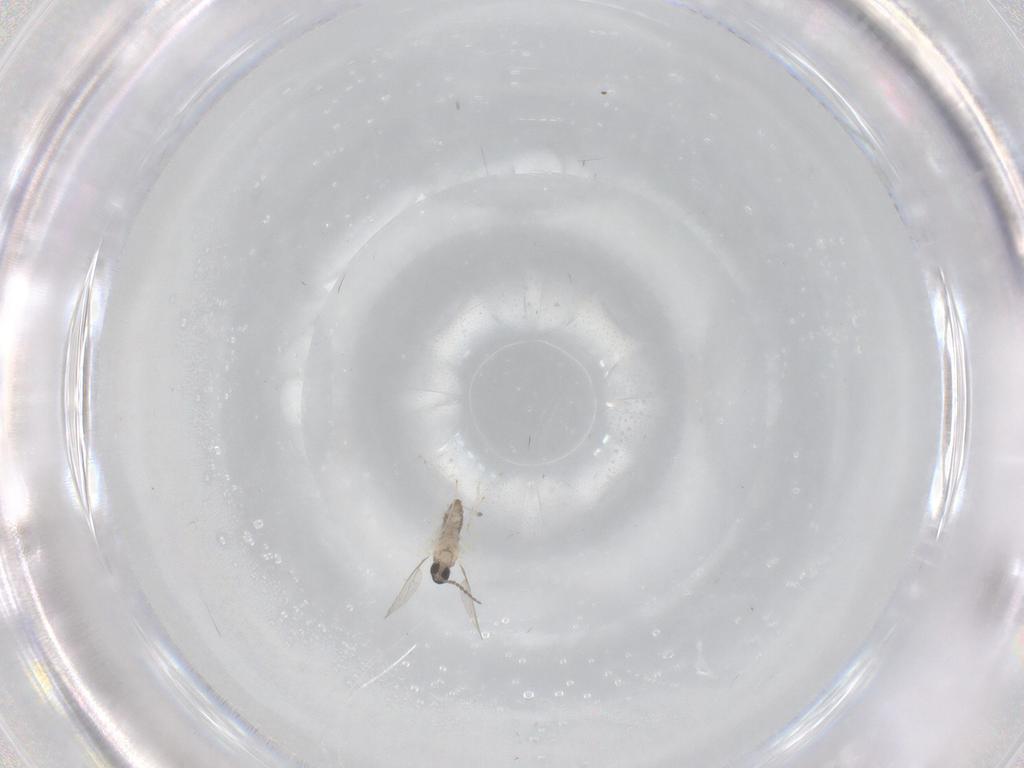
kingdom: Animalia
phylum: Arthropoda
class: Insecta
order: Diptera
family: Cecidomyiidae
